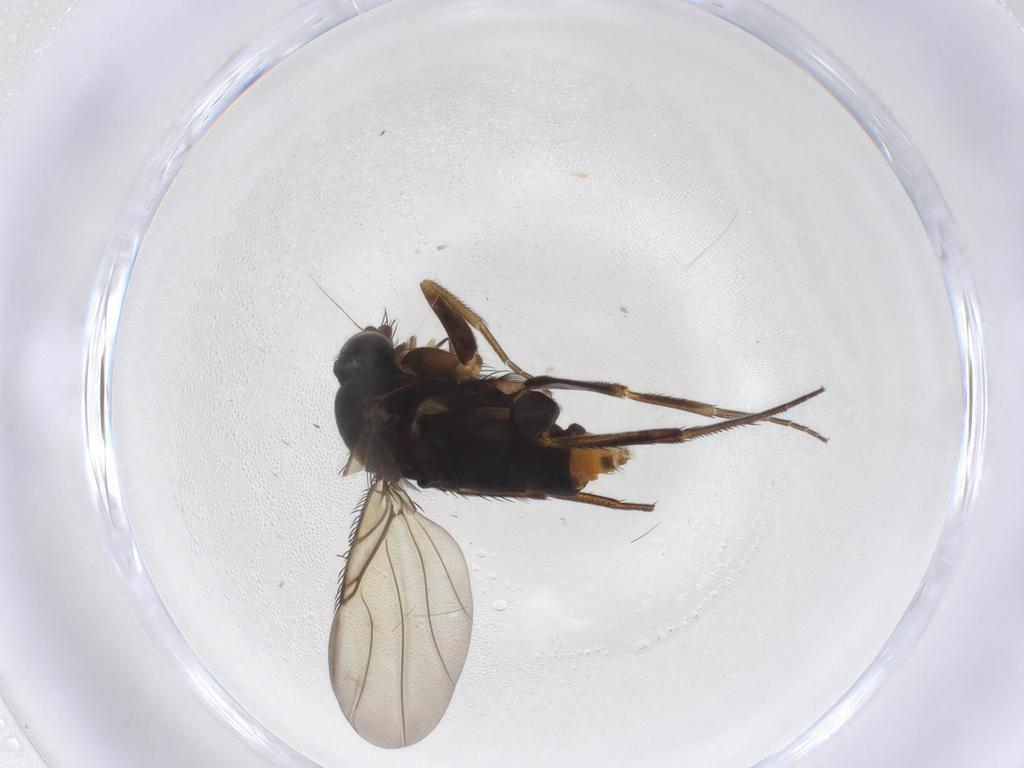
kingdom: Animalia
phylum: Arthropoda
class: Insecta
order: Diptera
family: Phoridae
